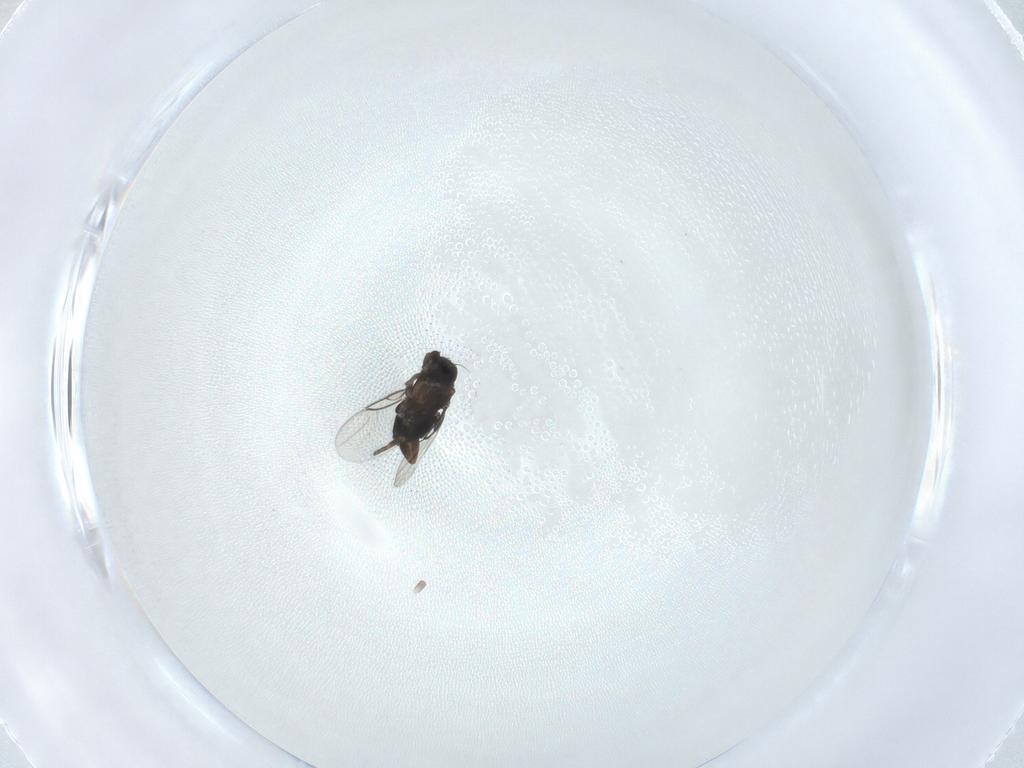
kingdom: Animalia
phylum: Arthropoda
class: Insecta
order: Diptera
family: Phoridae
